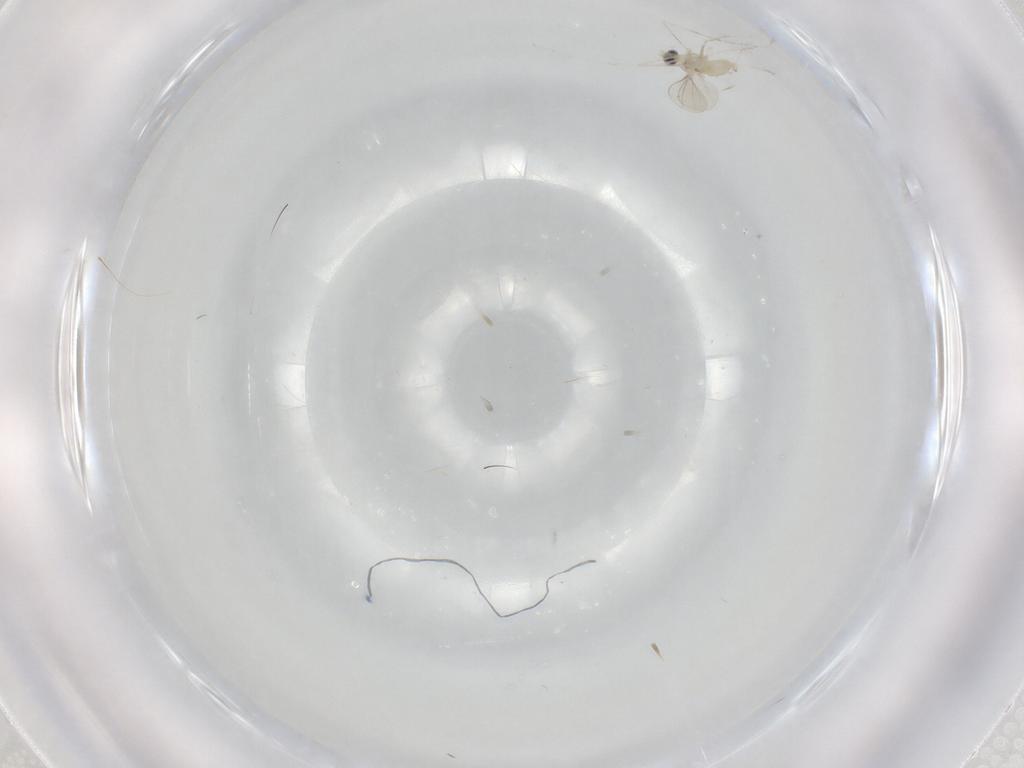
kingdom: Animalia
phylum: Arthropoda
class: Insecta
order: Diptera
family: Cecidomyiidae
